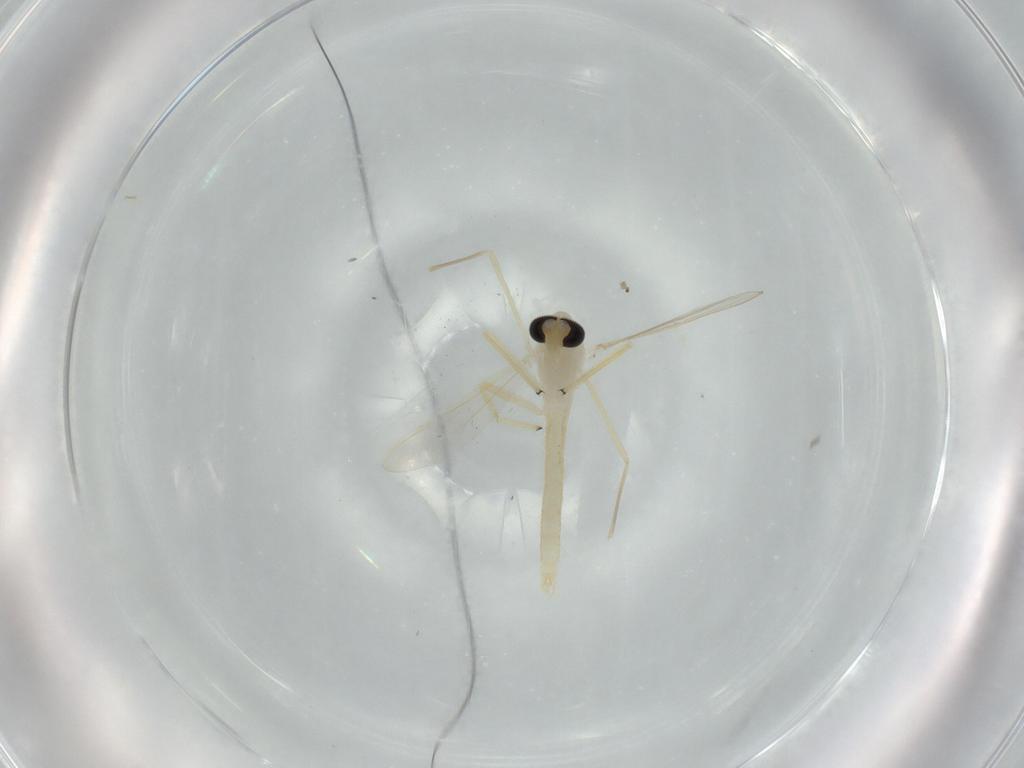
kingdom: Animalia
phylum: Arthropoda
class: Insecta
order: Diptera
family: Chironomidae
